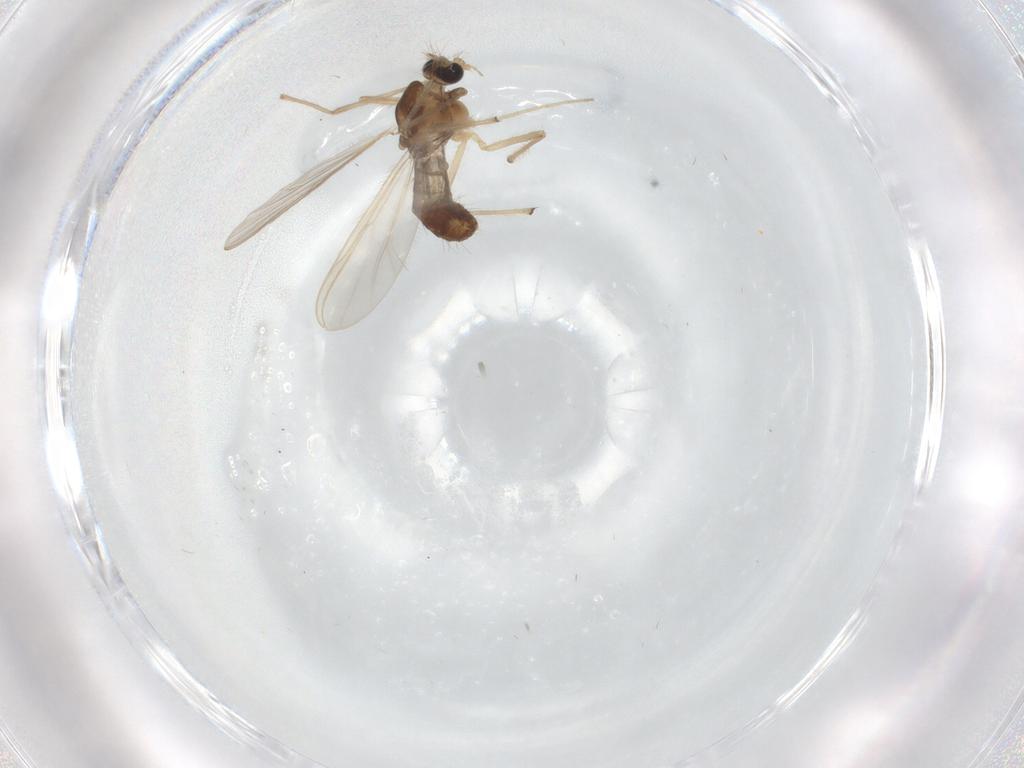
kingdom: Animalia
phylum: Arthropoda
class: Insecta
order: Diptera
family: Chironomidae
